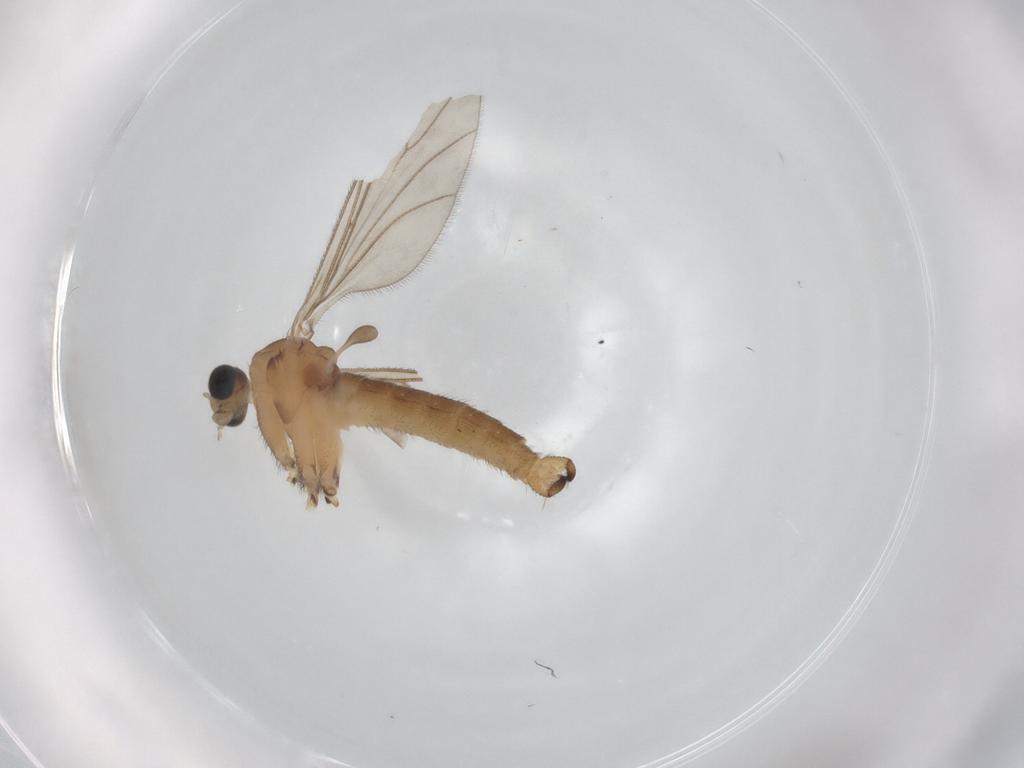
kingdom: Animalia
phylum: Arthropoda
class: Insecta
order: Diptera
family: Sciaridae
